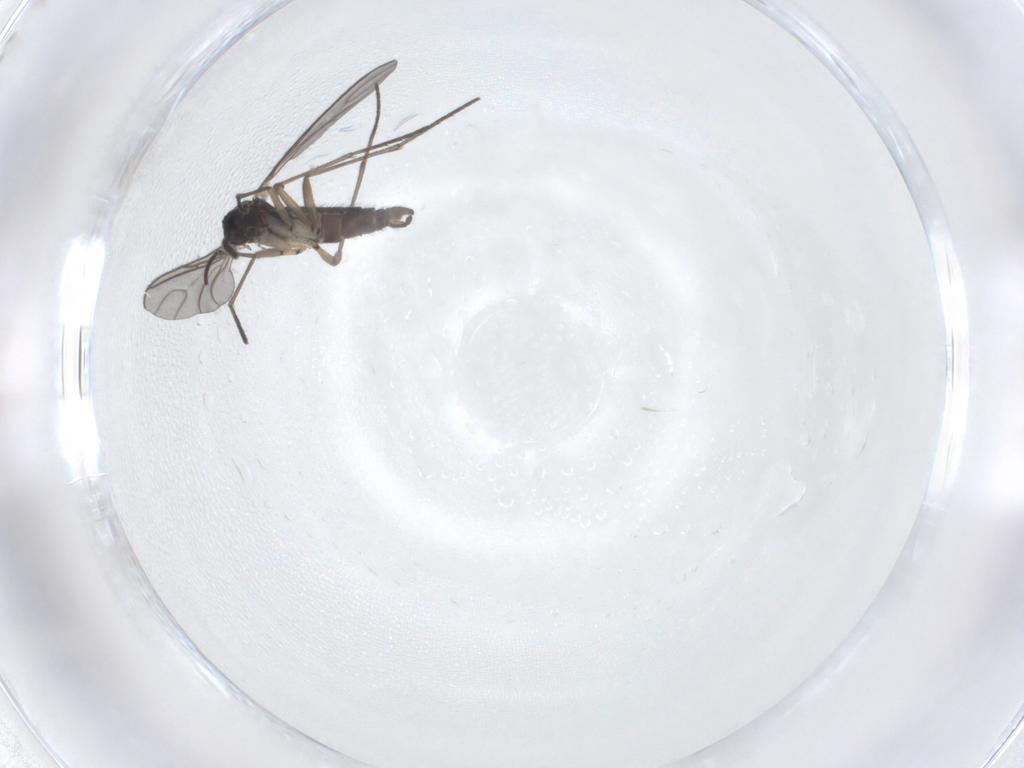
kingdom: Animalia
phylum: Arthropoda
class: Insecta
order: Diptera
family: Sciaridae
